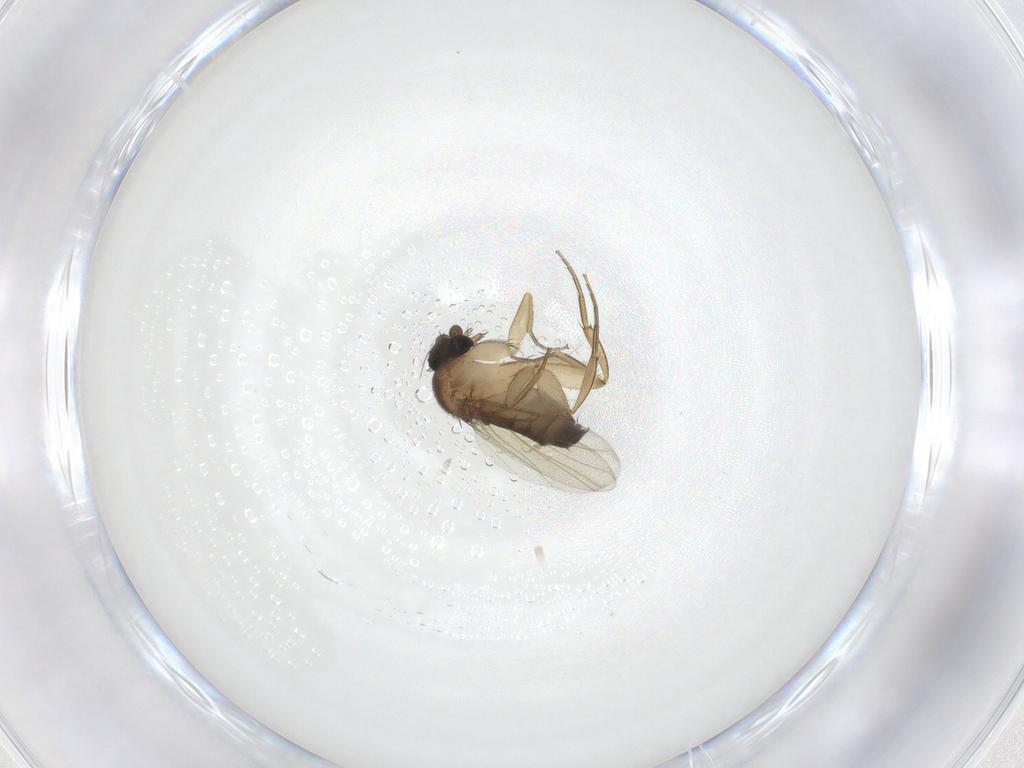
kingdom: Animalia
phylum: Arthropoda
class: Insecta
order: Diptera
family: Phoridae
